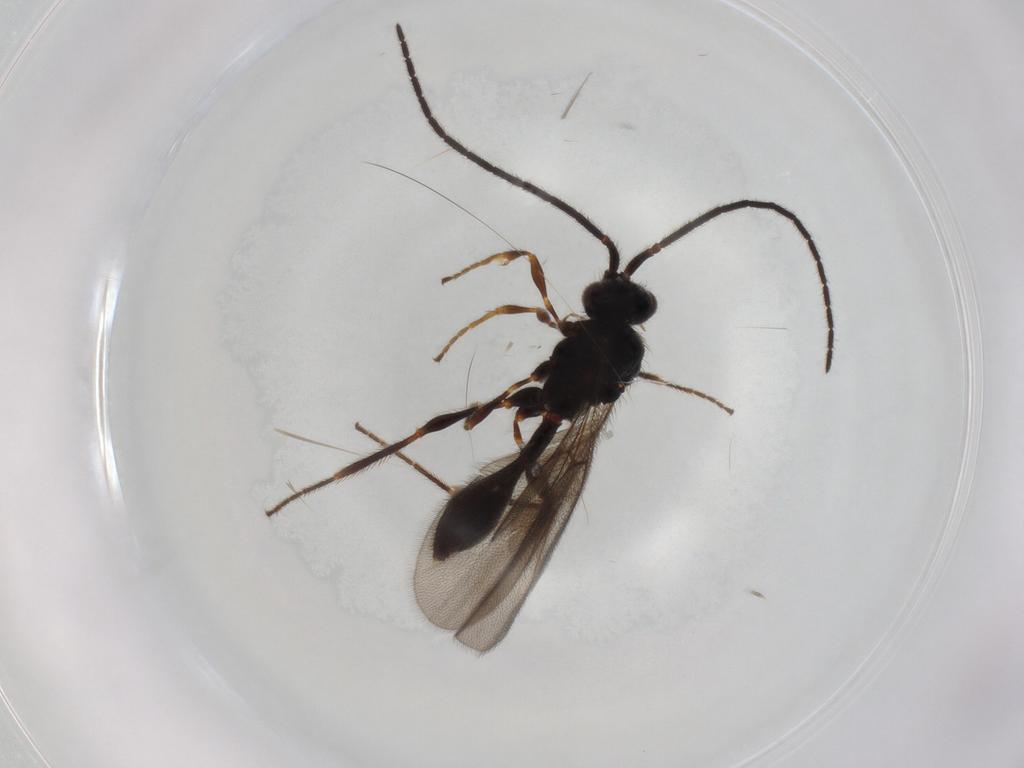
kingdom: Animalia
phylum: Arthropoda
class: Insecta
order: Hymenoptera
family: Diapriidae
